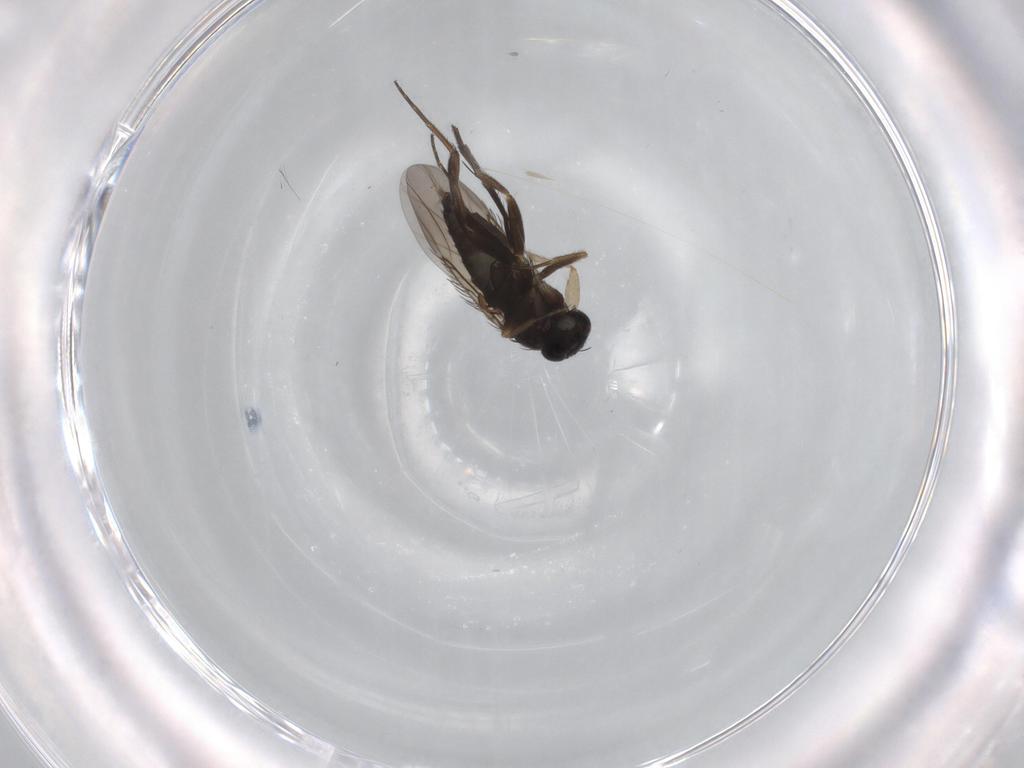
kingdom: Animalia
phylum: Arthropoda
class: Insecta
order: Diptera
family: Phoridae
